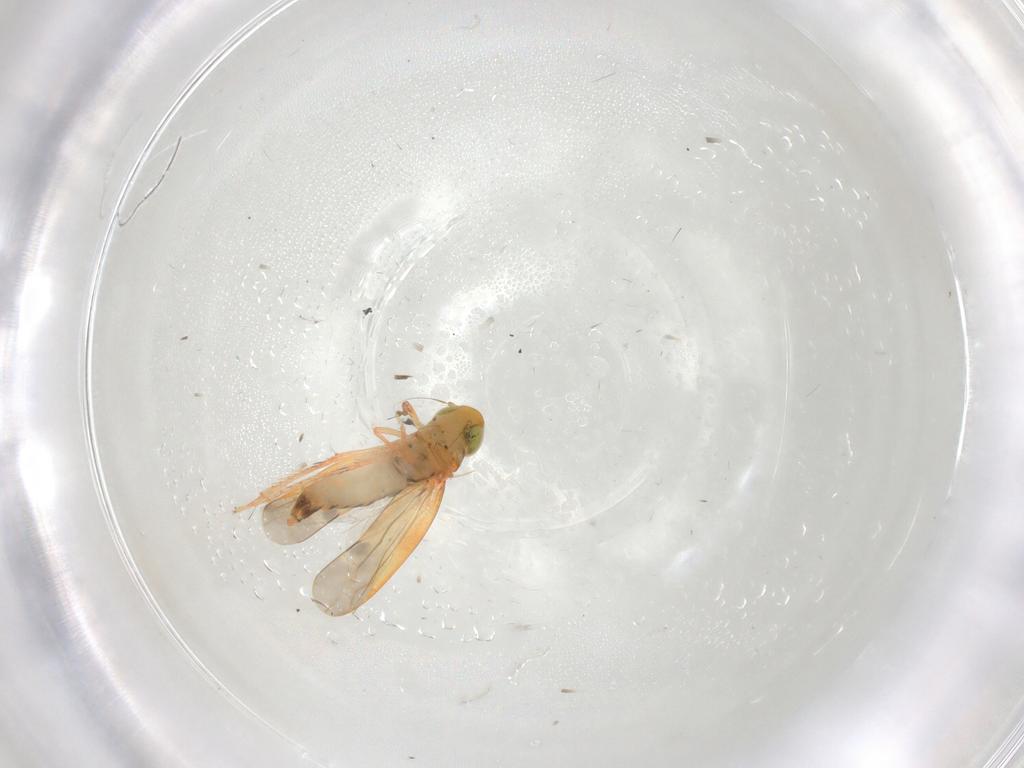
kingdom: Animalia
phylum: Arthropoda
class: Insecta
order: Hemiptera
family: Cicadellidae
